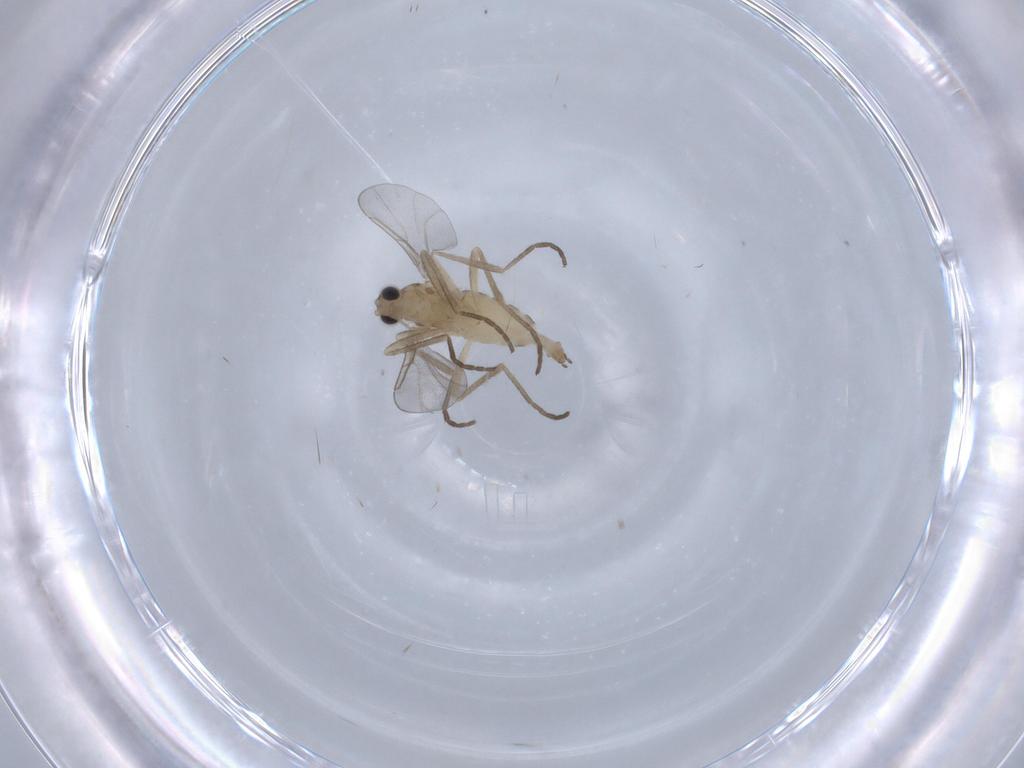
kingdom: Animalia
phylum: Arthropoda
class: Insecta
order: Diptera
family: Cecidomyiidae
